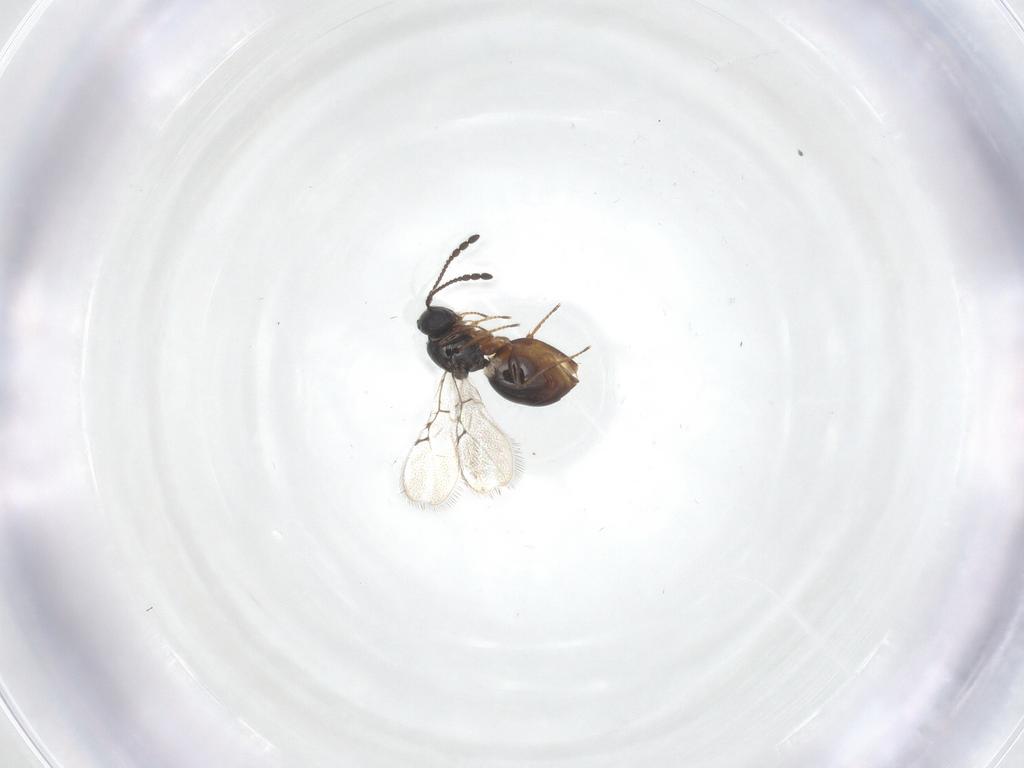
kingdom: Animalia
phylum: Arthropoda
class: Insecta
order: Hymenoptera
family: Figitidae
